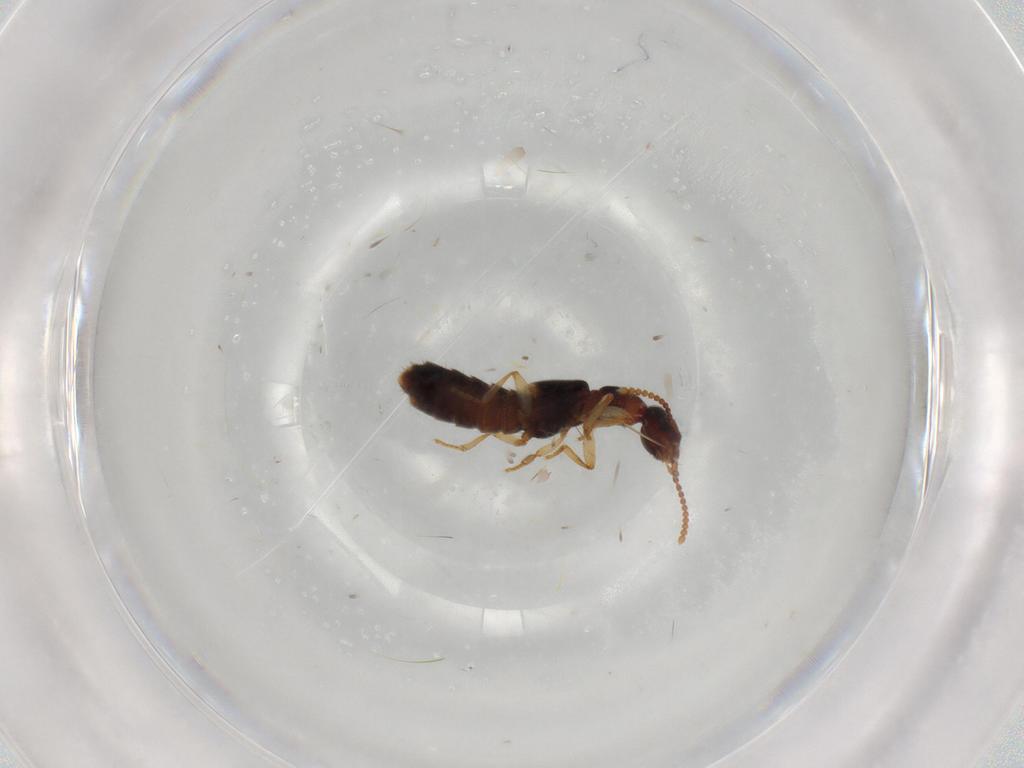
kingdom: Animalia
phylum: Arthropoda
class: Insecta
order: Coleoptera
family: Staphylinidae
